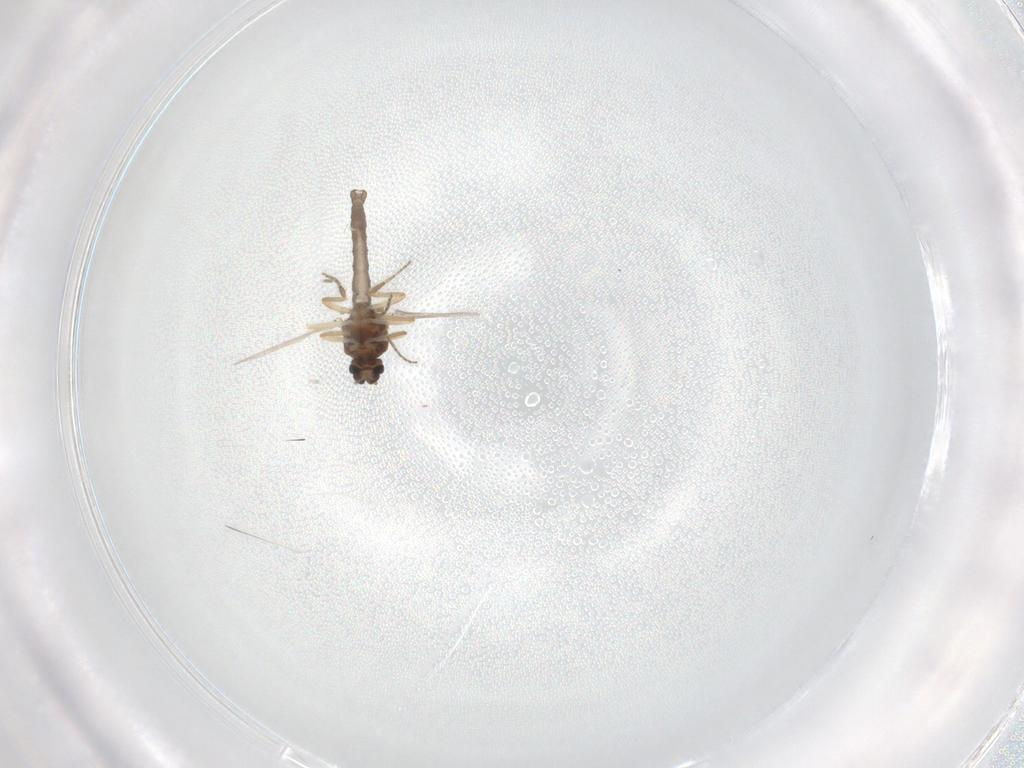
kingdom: Animalia
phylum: Arthropoda
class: Insecta
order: Diptera
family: Ceratopogonidae
